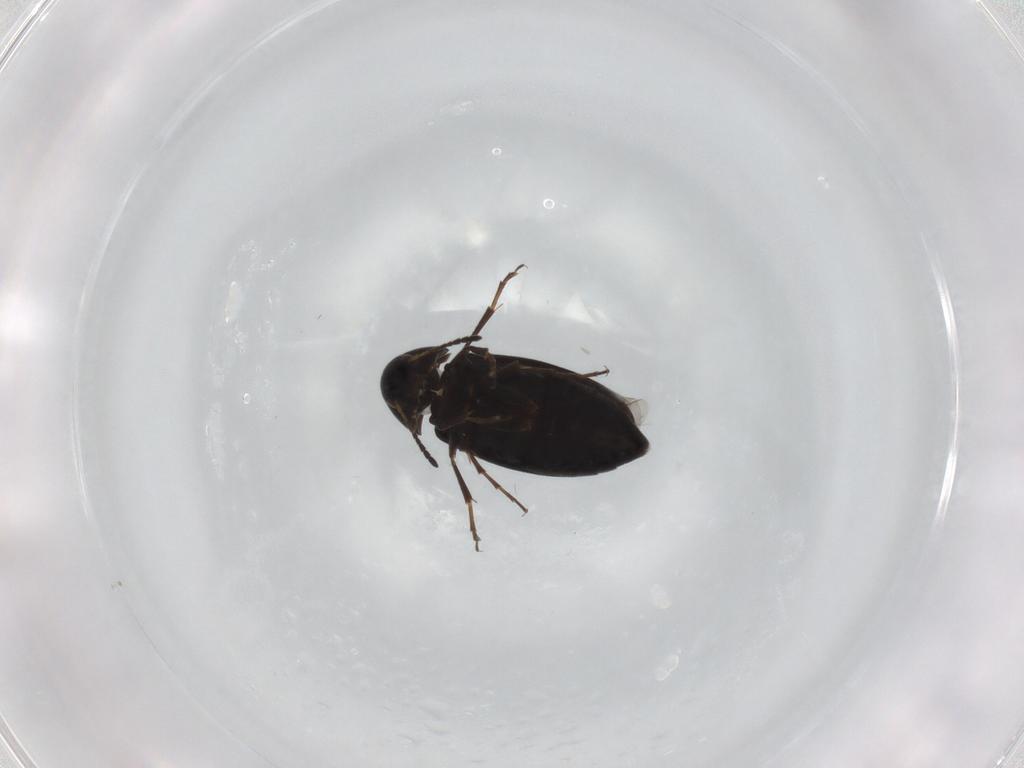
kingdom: Animalia
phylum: Arthropoda
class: Insecta
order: Coleoptera
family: Scraptiidae
